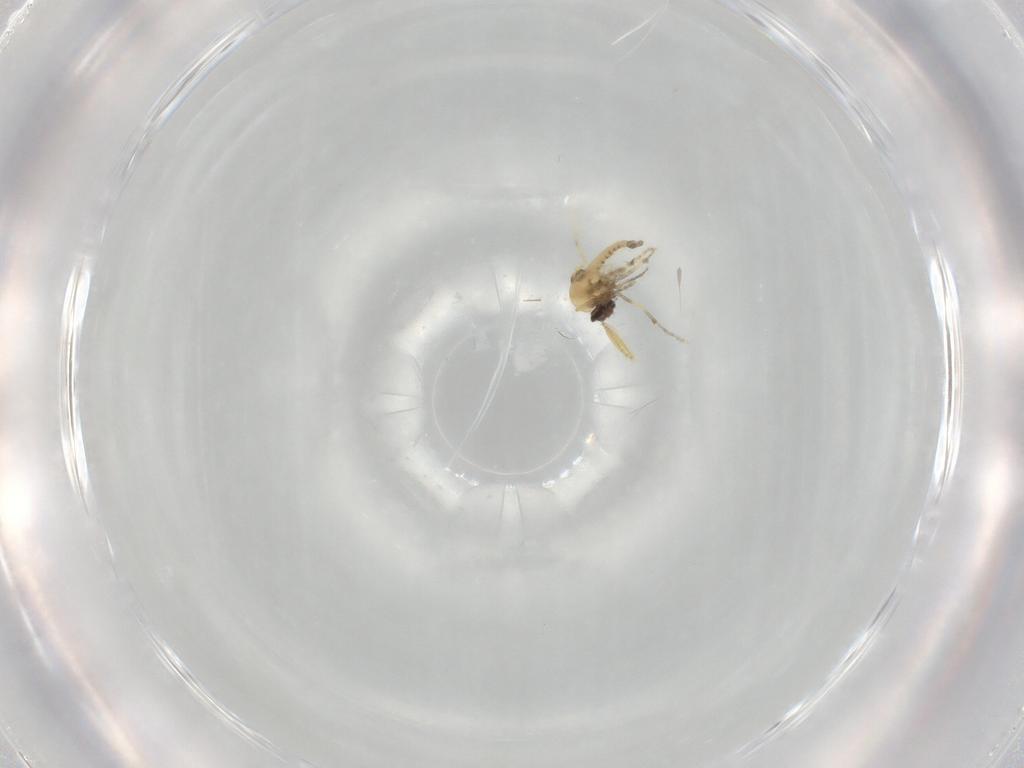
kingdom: Animalia
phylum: Arthropoda
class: Insecta
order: Diptera
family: Ceratopogonidae
